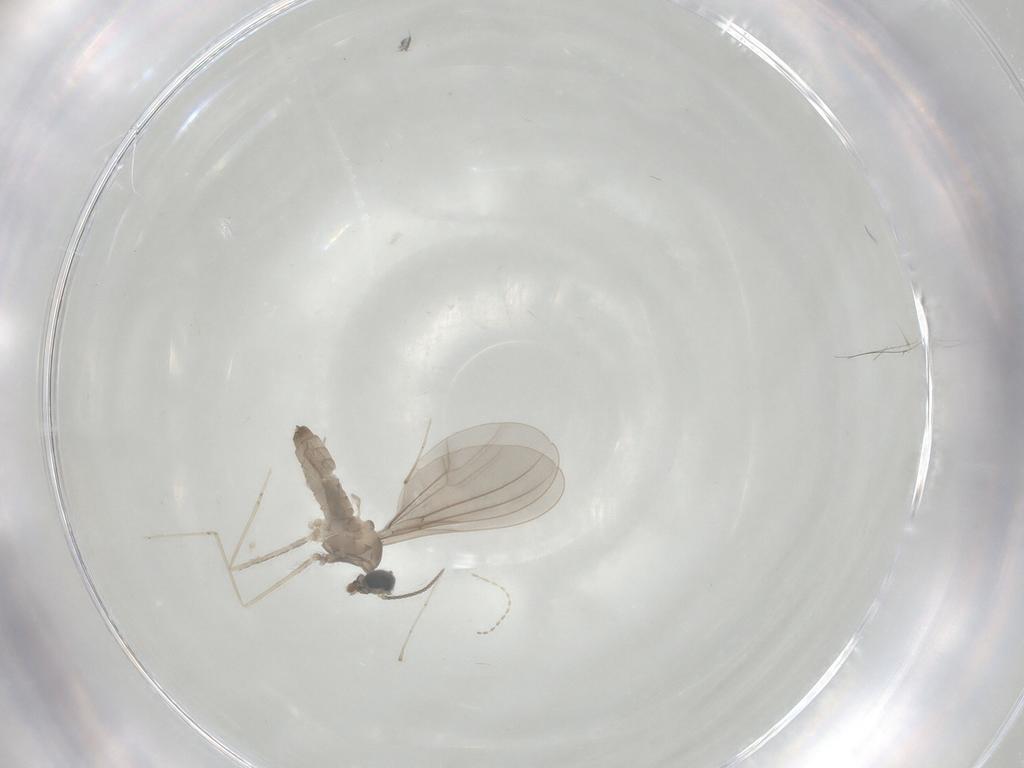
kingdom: Animalia
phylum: Arthropoda
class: Insecta
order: Diptera
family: Cecidomyiidae
